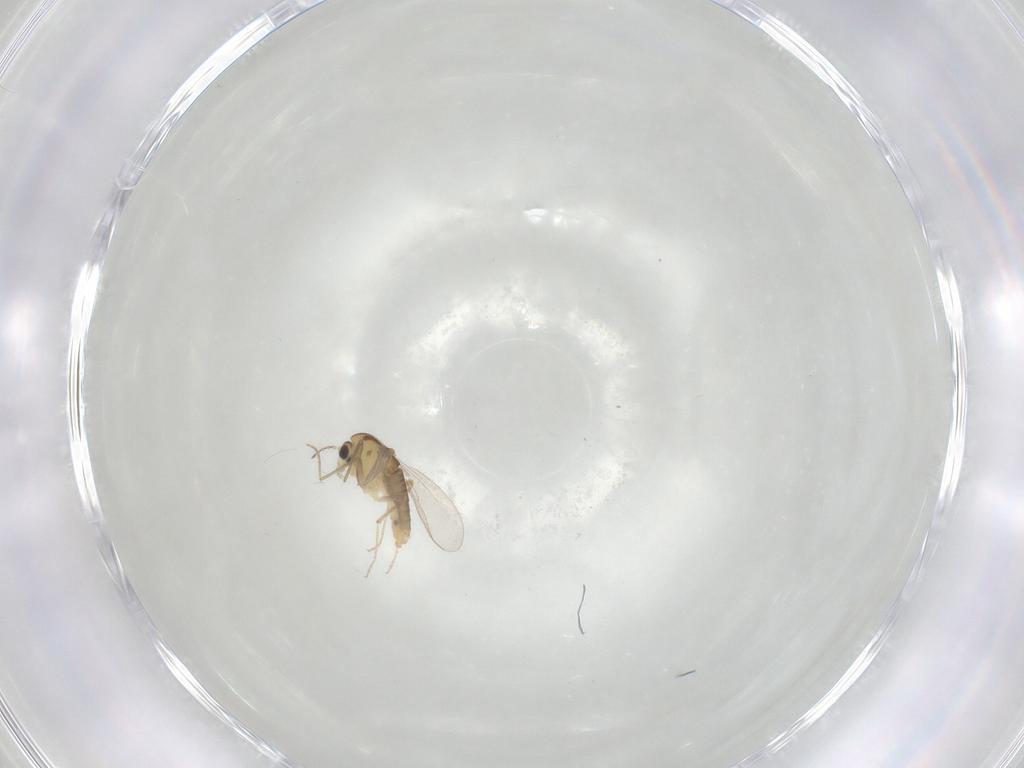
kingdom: Animalia
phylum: Arthropoda
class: Insecta
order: Diptera
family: Chironomidae
